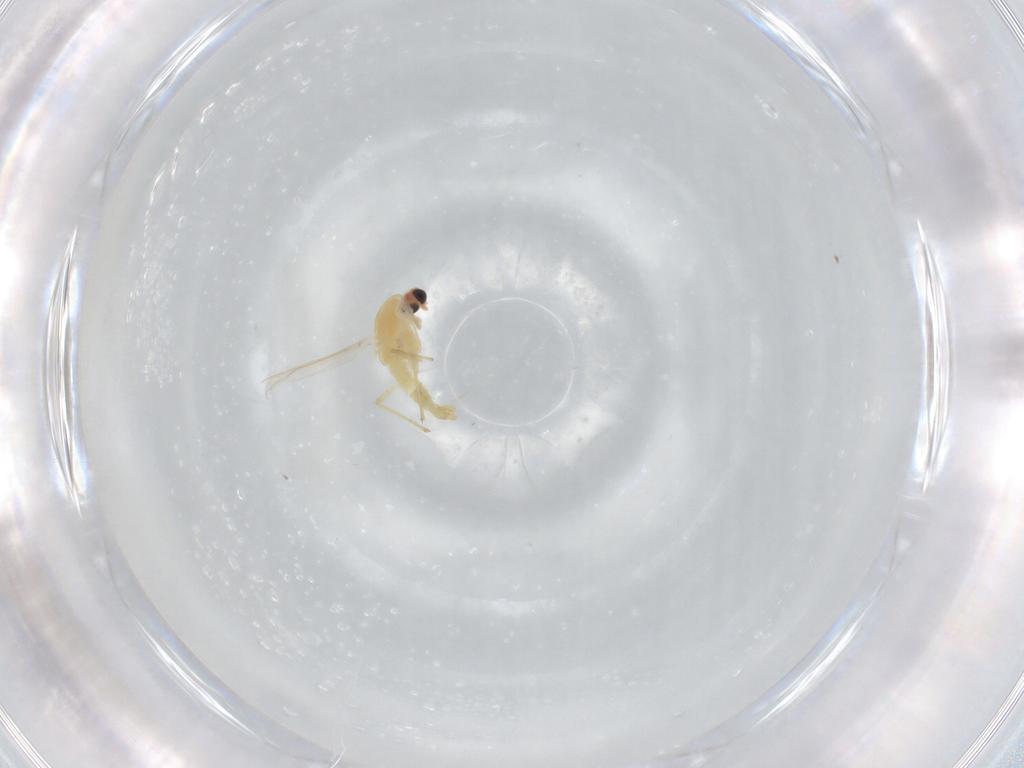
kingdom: Animalia
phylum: Arthropoda
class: Insecta
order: Diptera
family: Chironomidae
